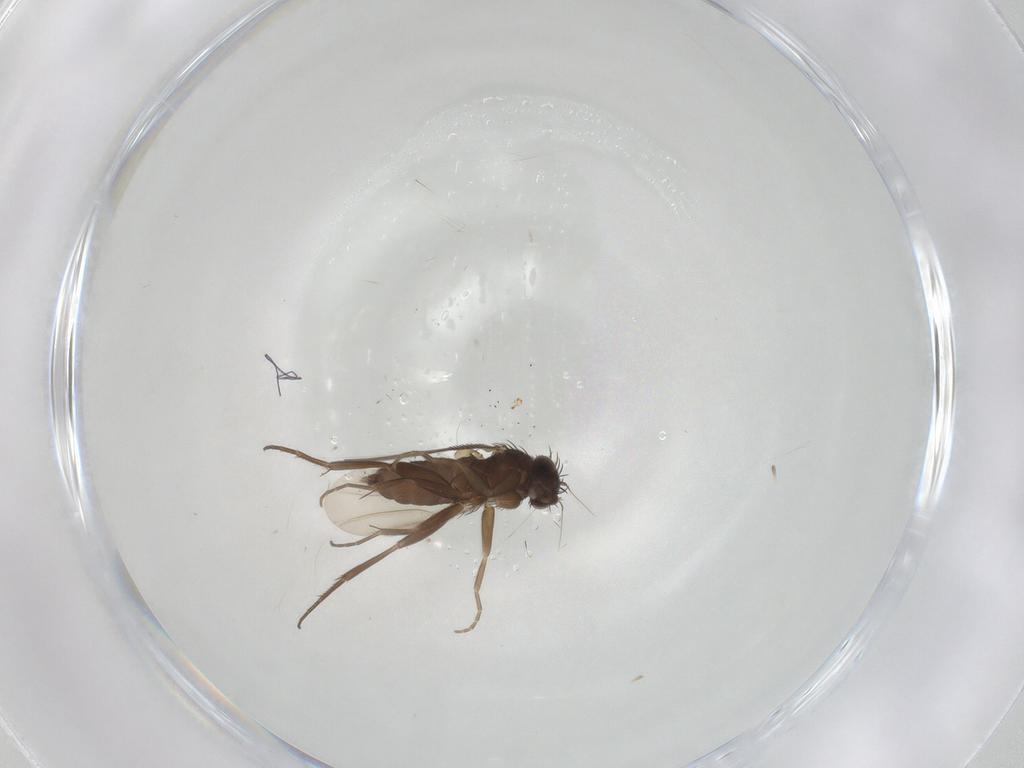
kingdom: Animalia
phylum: Arthropoda
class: Insecta
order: Diptera
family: Phoridae
